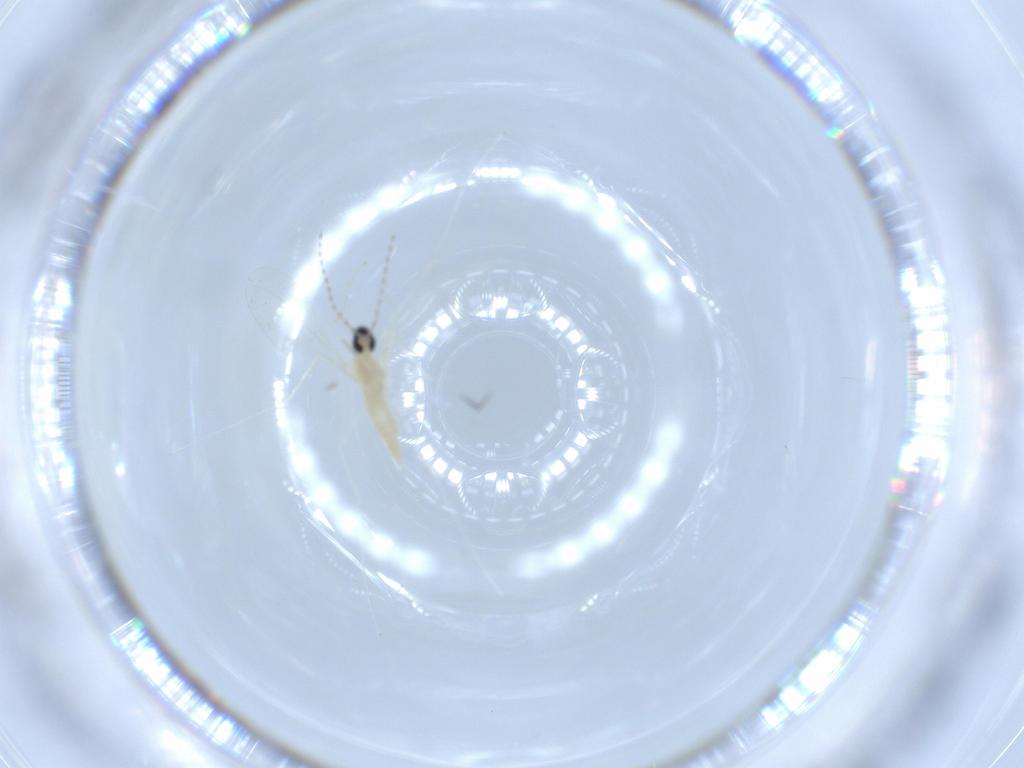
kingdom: Animalia
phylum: Arthropoda
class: Insecta
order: Diptera
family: Cecidomyiidae
